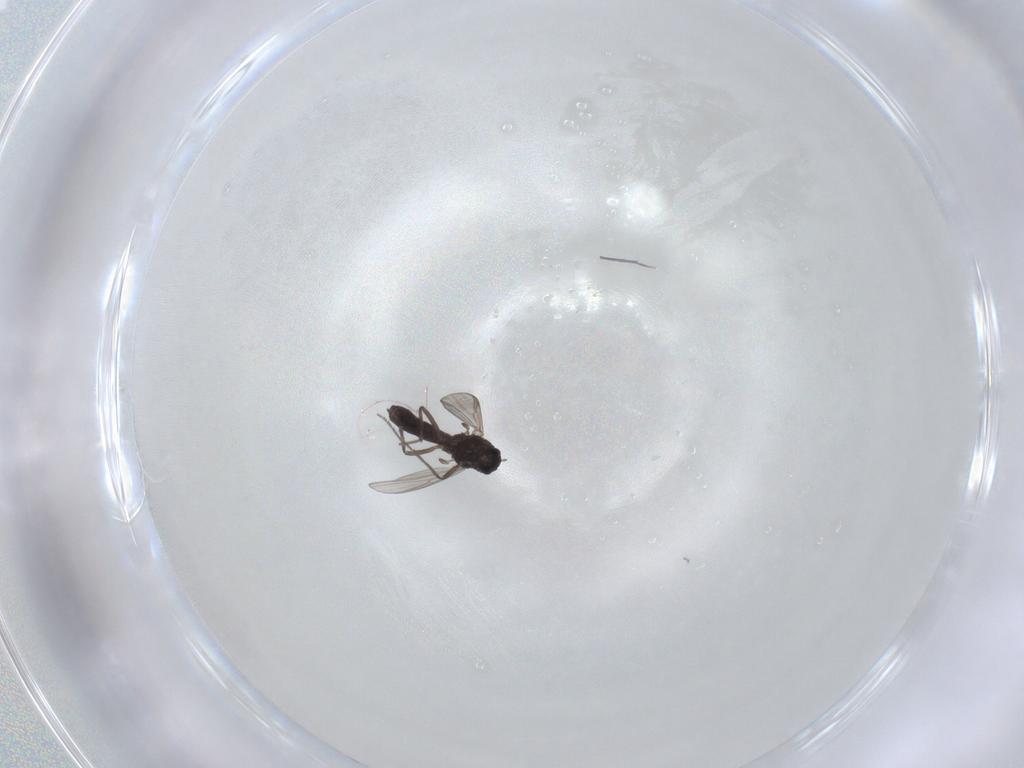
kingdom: Animalia
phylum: Arthropoda
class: Insecta
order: Diptera
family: Chironomidae
